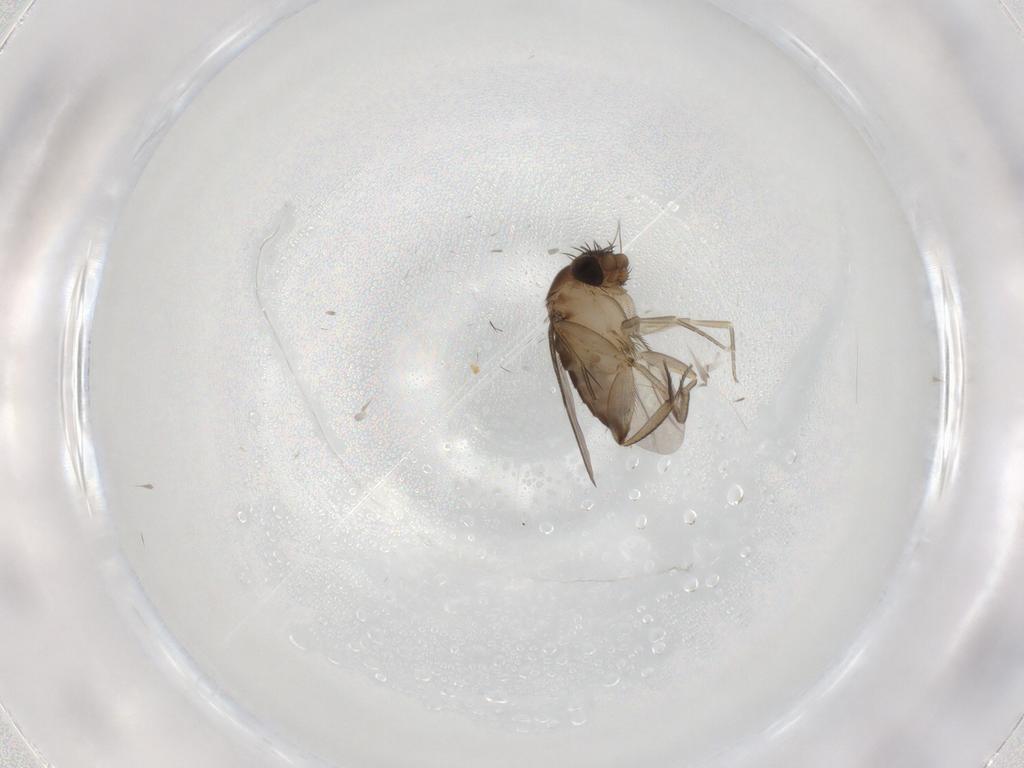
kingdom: Animalia
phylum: Arthropoda
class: Insecta
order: Diptera
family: Phoridae
